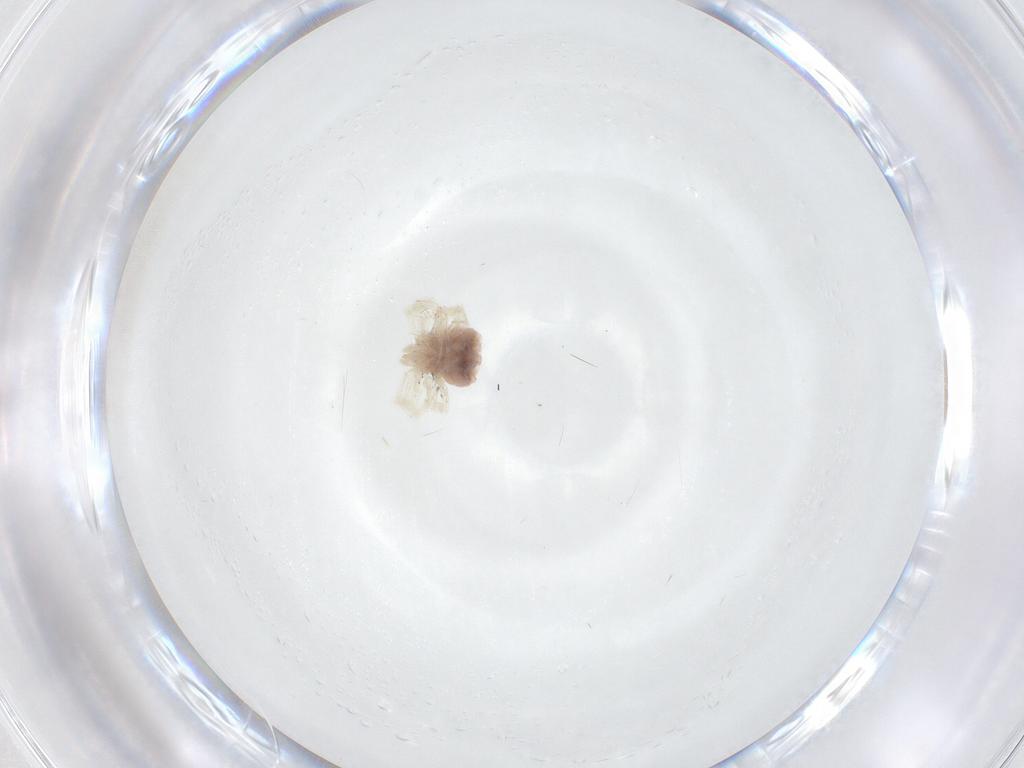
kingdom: Animalia
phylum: Arthropoda
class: Arachnida
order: Trombidiformes
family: Anystidae
